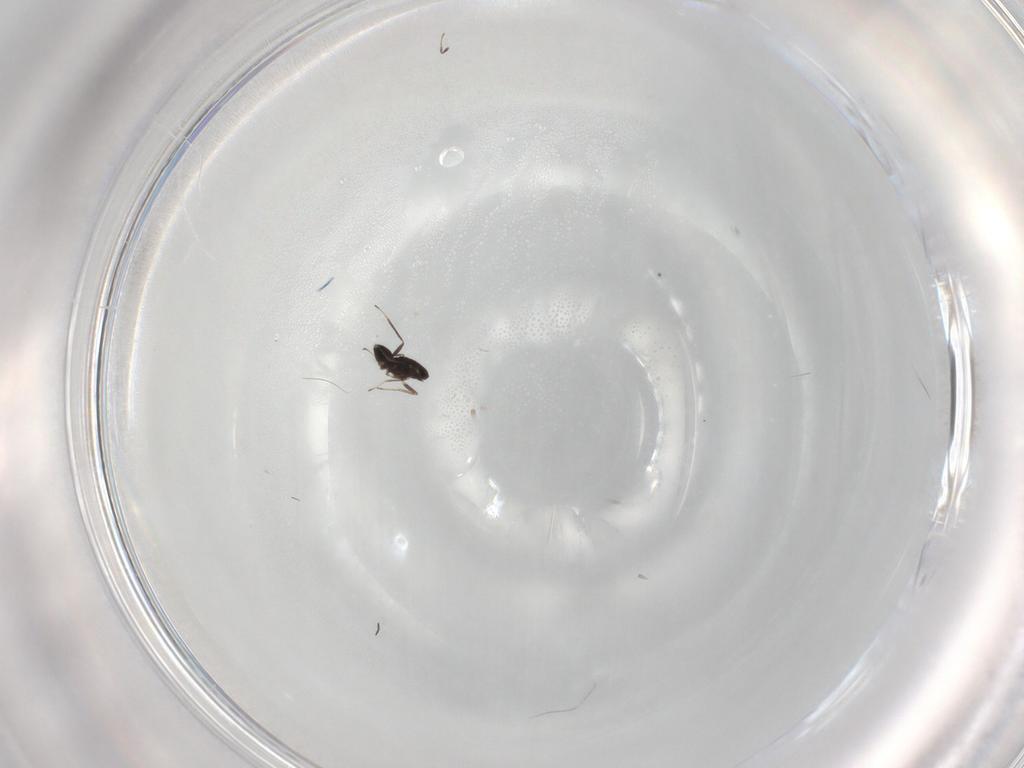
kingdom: Animalia
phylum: Arthropoda
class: Insecta
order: Hymenoptera
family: Mymaridae
